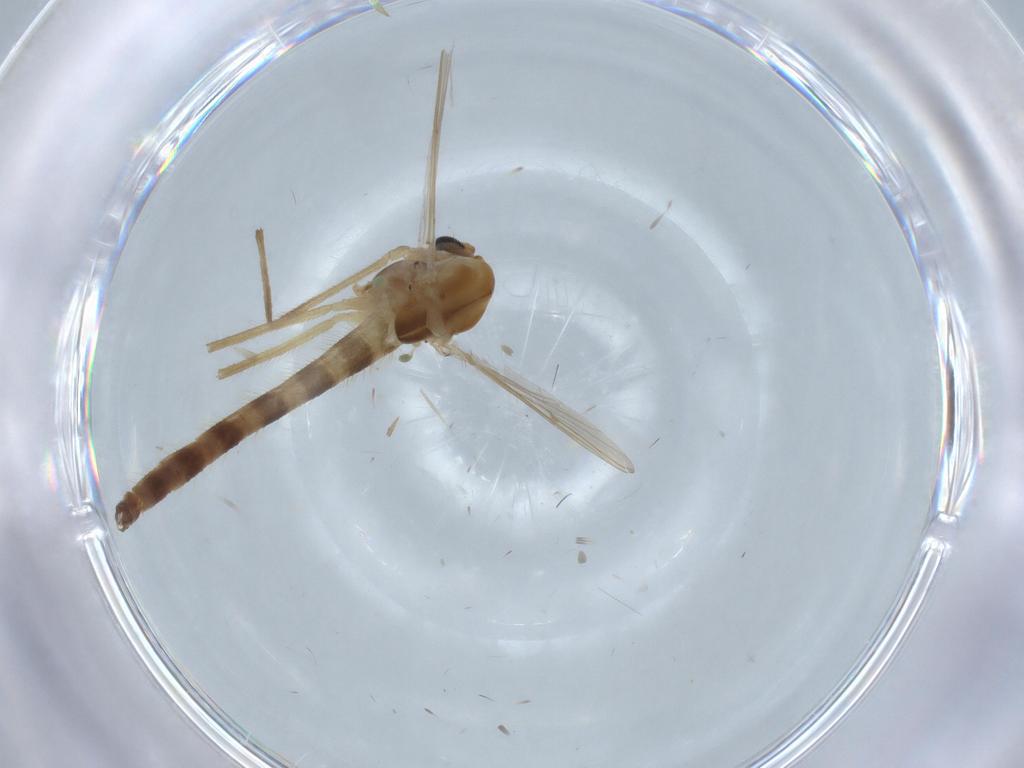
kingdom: Animalia
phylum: Arthropoda
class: Insecta
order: Diptera
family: Chironomidae
